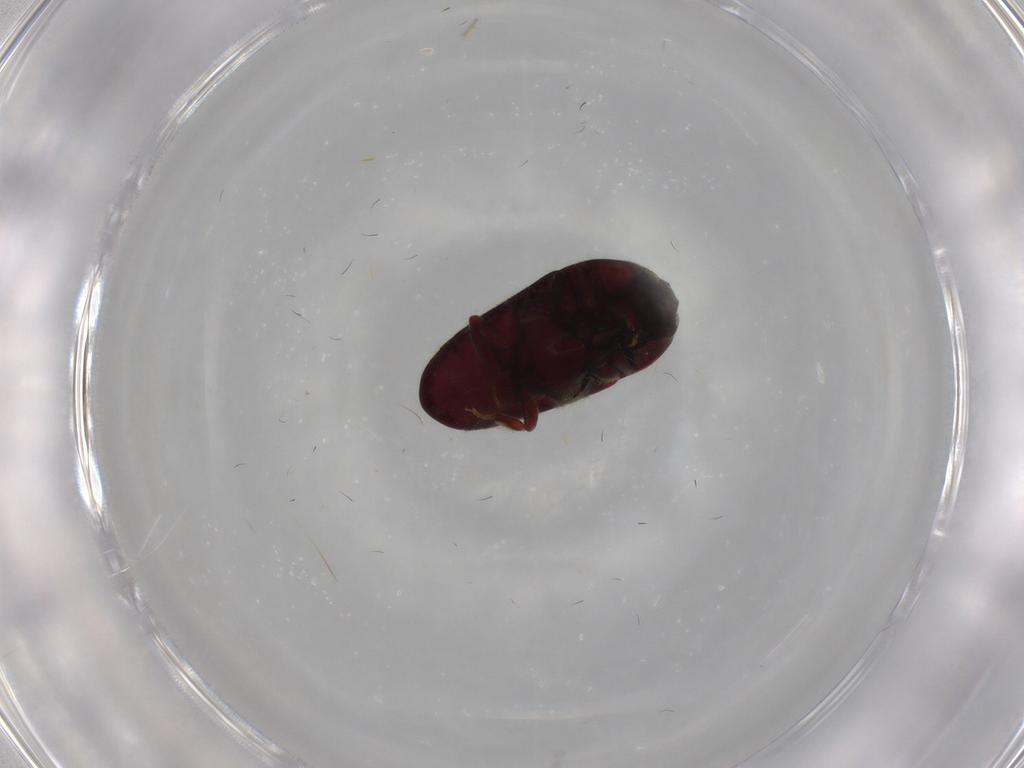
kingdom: Animalia
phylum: Arthropoda
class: Insecta
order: Coleoptera
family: Throscidae
